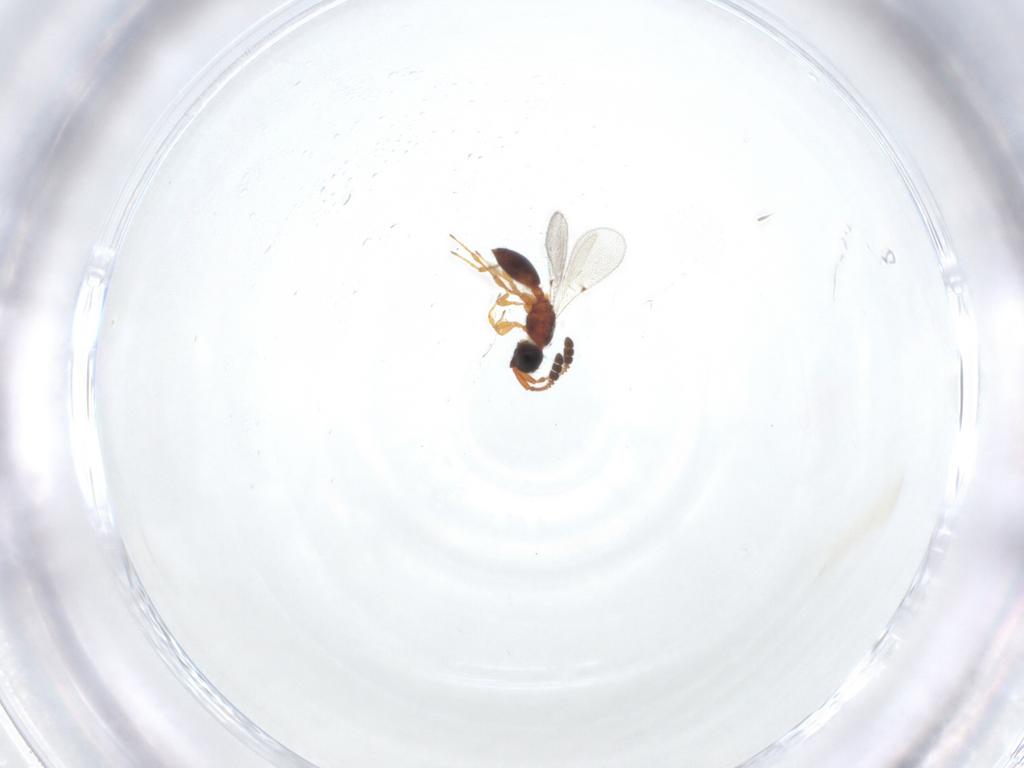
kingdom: Animalia
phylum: Arthropoda
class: Insecta
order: Hymenoptera
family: Diapriidae
